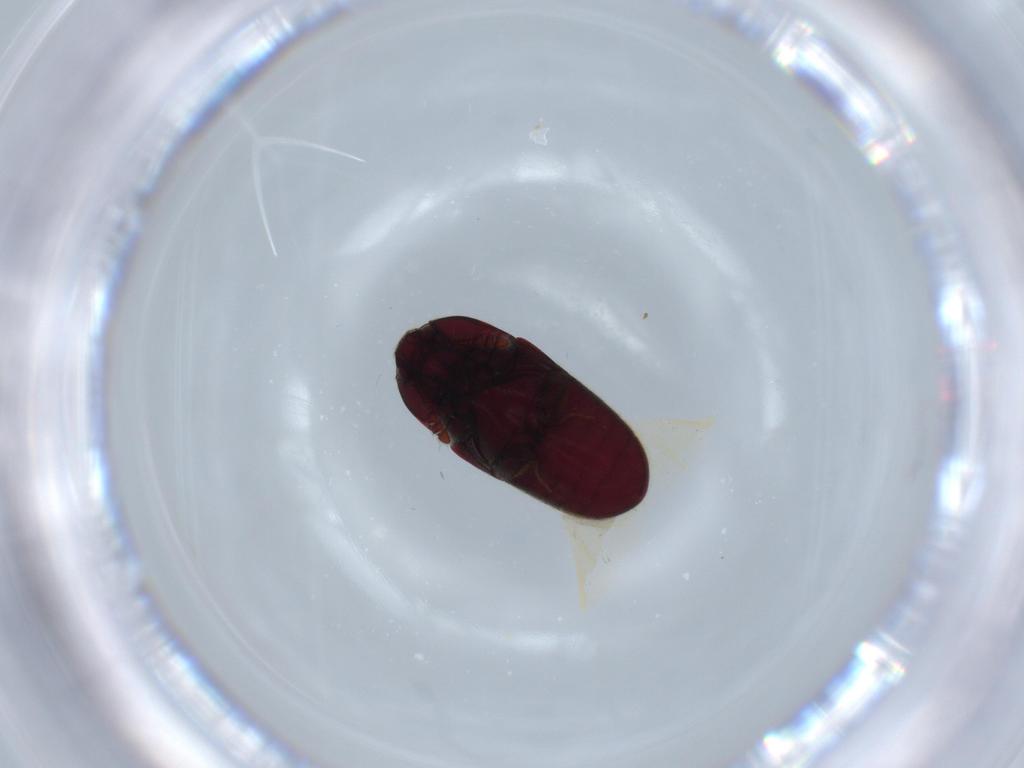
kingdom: Animalia
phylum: Arthropoda
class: Insecta
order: Coleoptera
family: Throscidae
